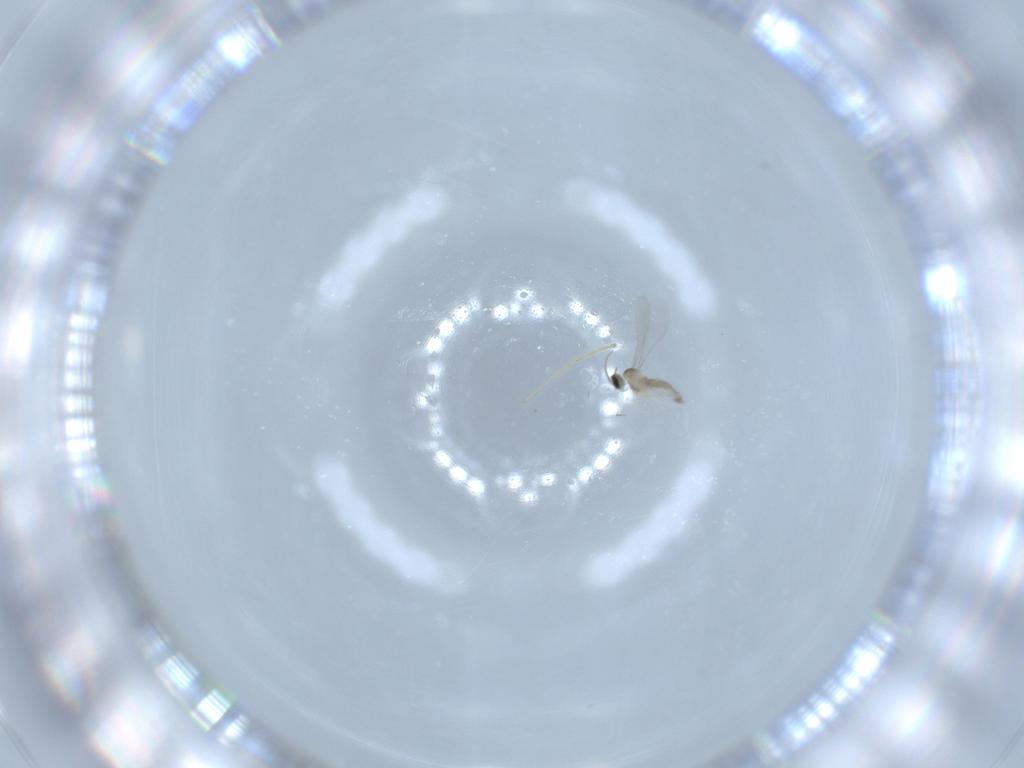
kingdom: Animalia
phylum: Arthropoda
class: Insecta
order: Diptera
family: Chironomidae
